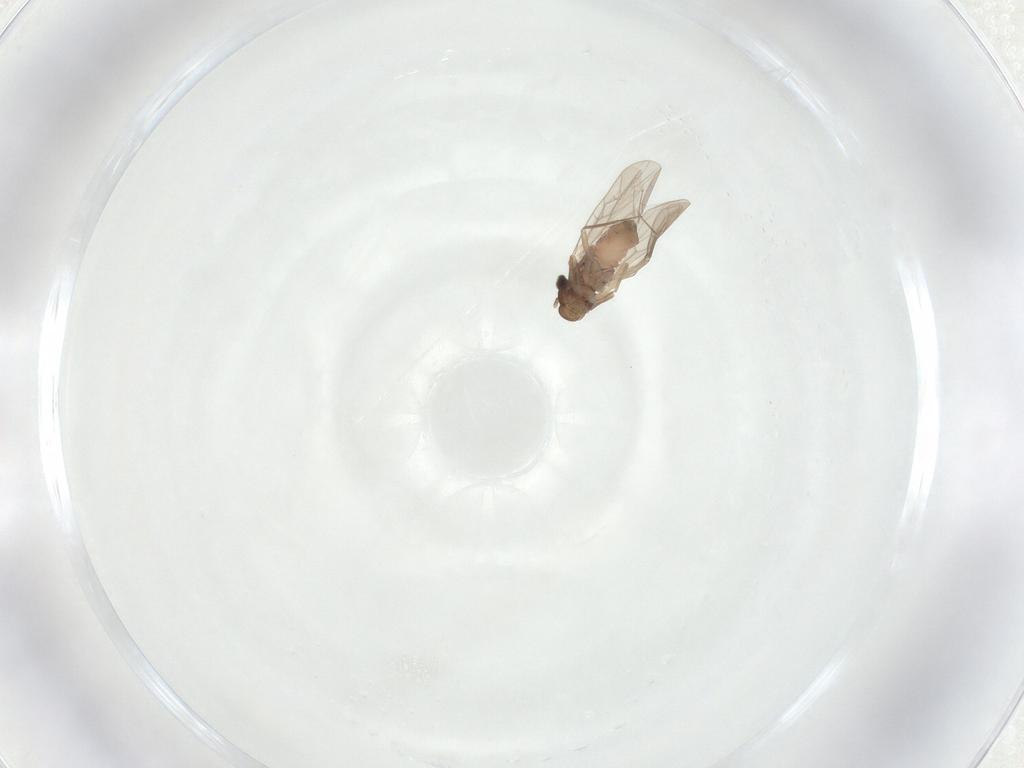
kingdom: Animalia
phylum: Arthropoda
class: Insecta
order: Psocodea
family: Lepidopsocidae
